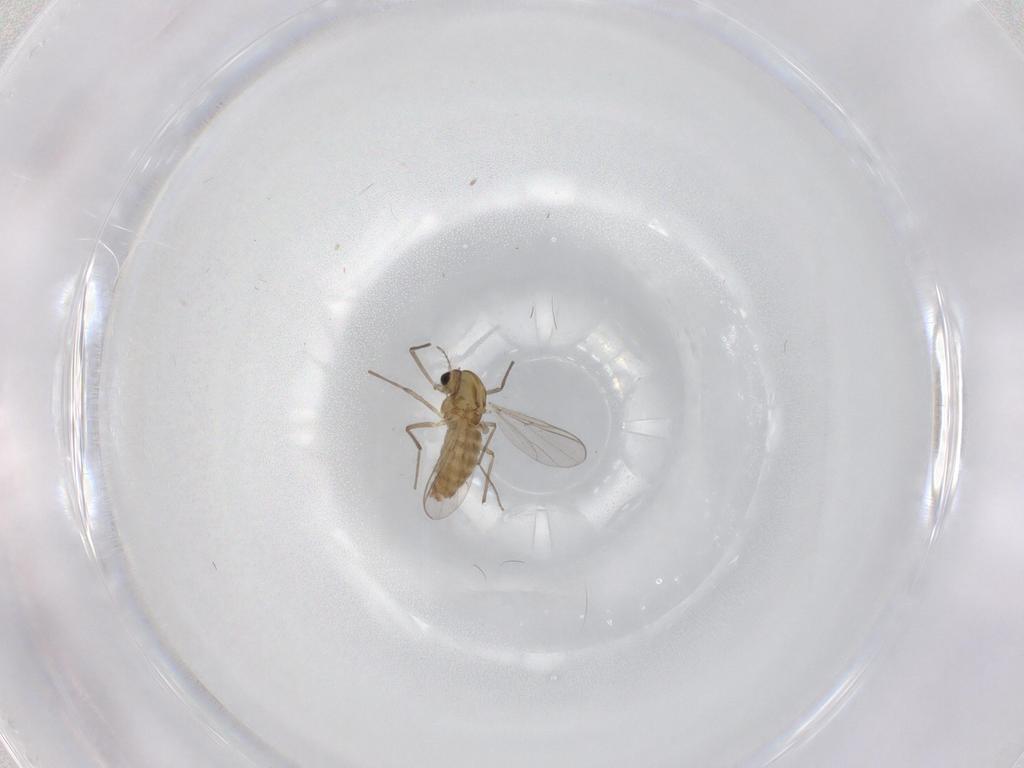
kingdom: Animalia
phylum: Arthropoda
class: Insecta
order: Diptera
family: Chironomidae
